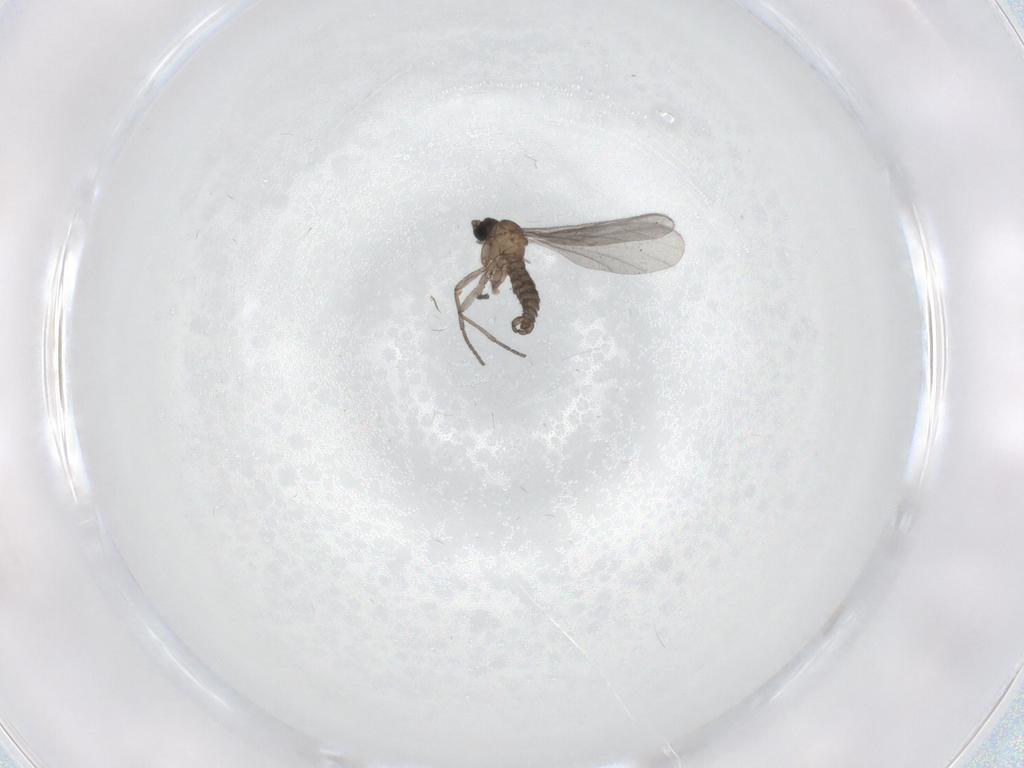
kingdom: Animalia
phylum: Arthropoda
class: Insecta
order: Diptera
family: Sciaridae
